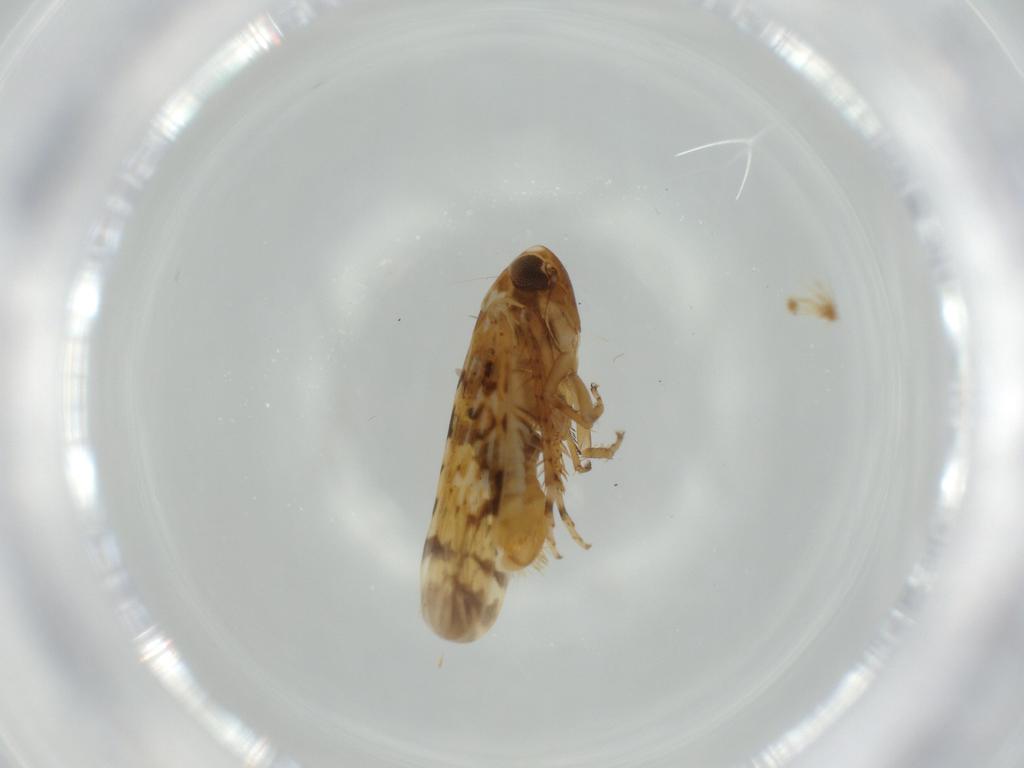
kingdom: Animalia
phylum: Arthropoda
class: Insecta
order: Hemiptera
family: Cicadellidae
